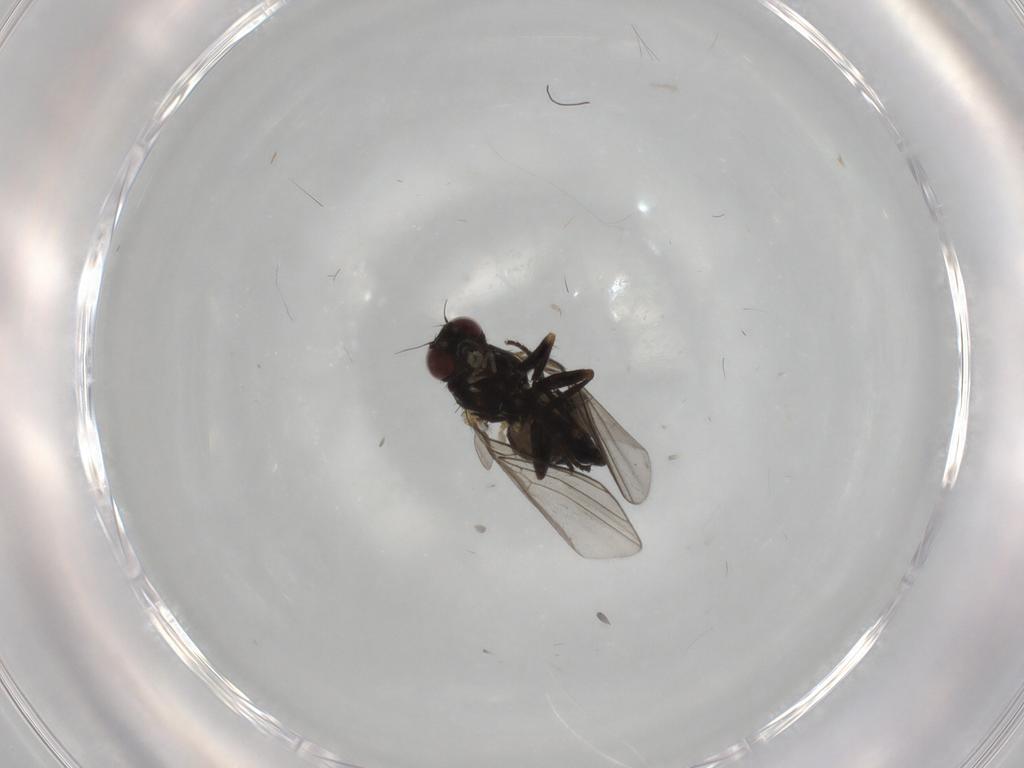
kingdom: Animalia
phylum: Arthropoda
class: Insecta
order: Diptera
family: Agromyzidae
